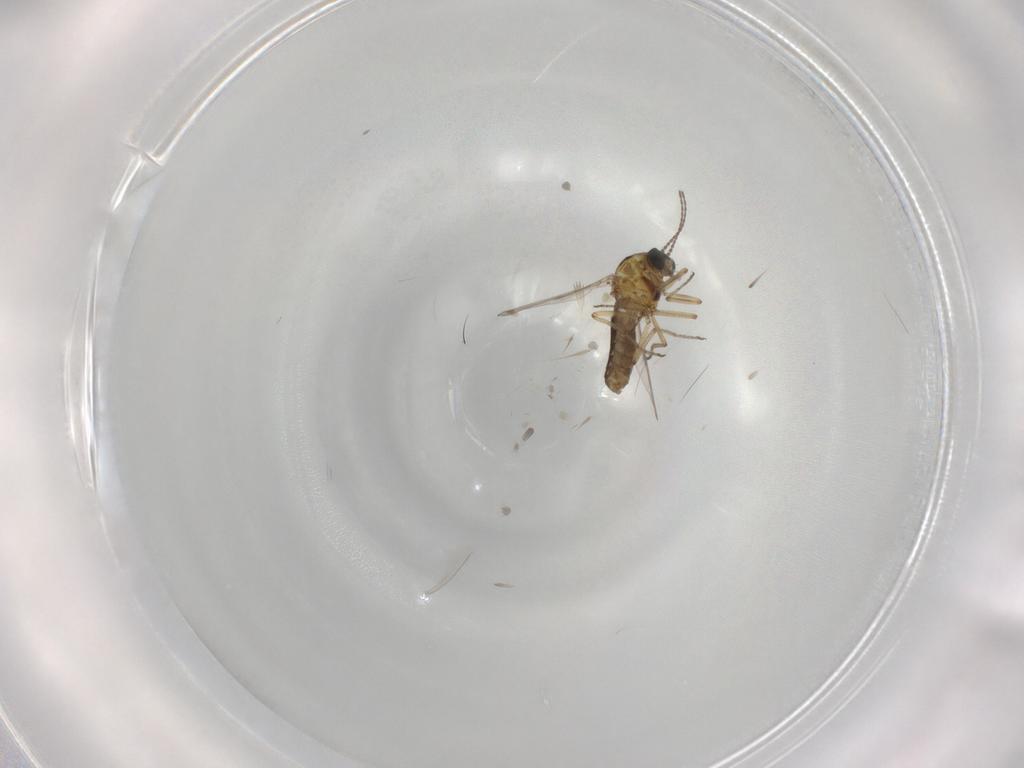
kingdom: Animalia
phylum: Arthropoda
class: Insecta
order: Diptera
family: Ceratopogonidae
